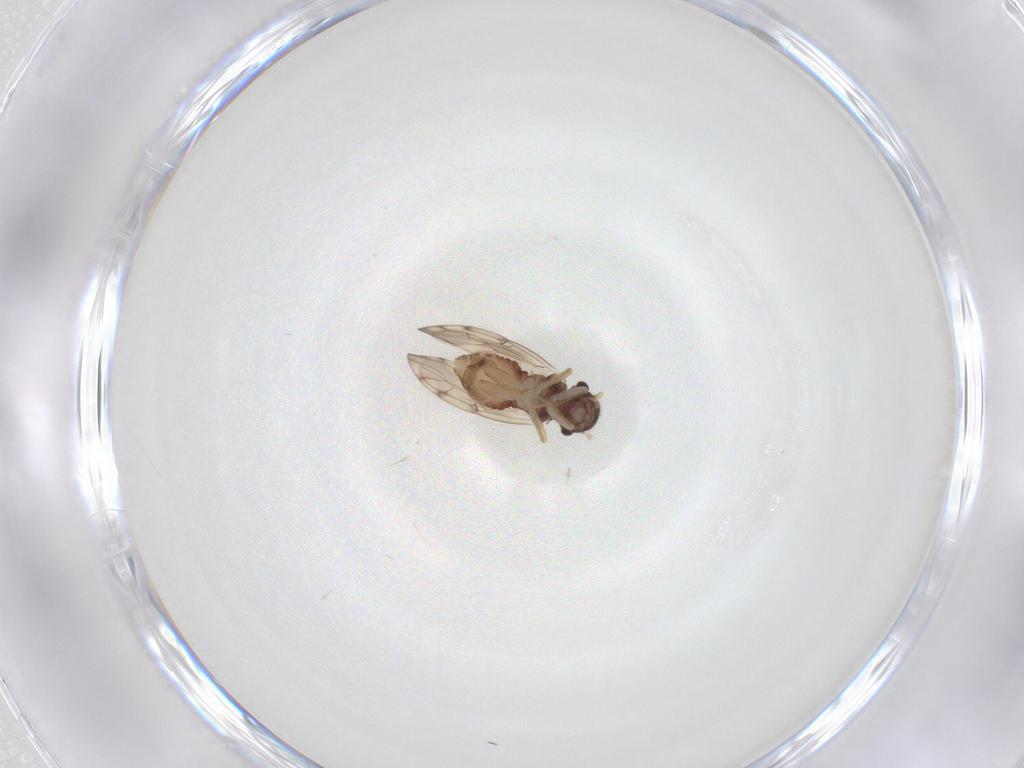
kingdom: Animalia
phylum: Arthropoda
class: Insecta
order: Psocodea
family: Peripsocidae
